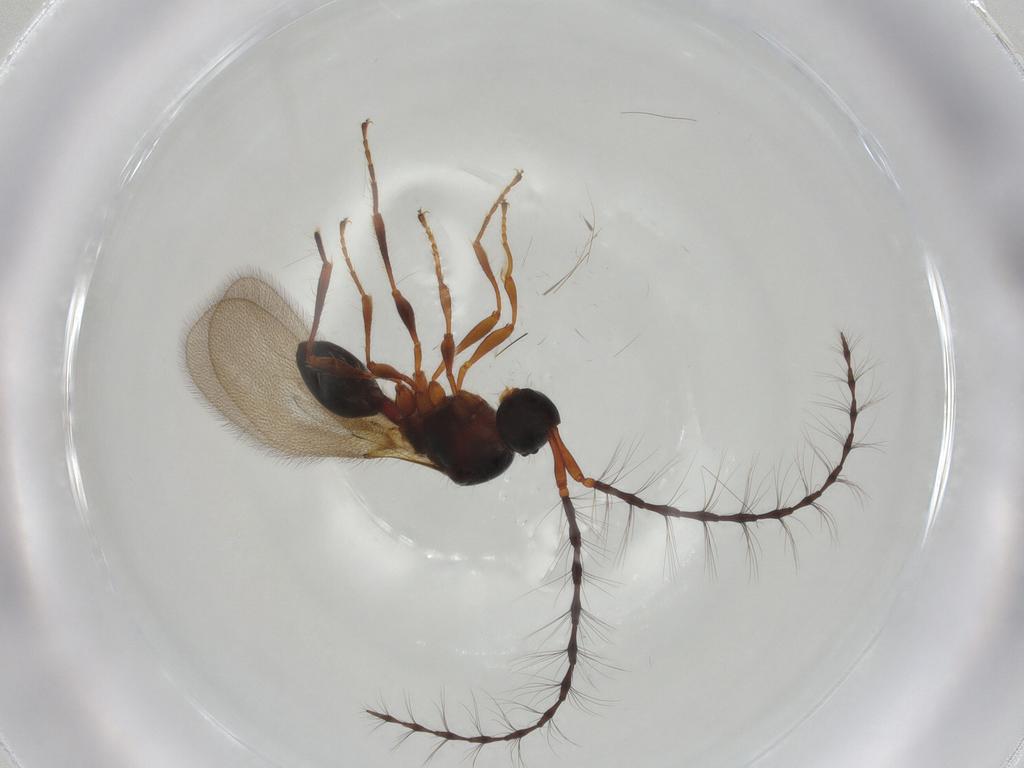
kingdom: Animalia
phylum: Arthropoda
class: Insecta
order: Hymenoptera
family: Diapriidae
